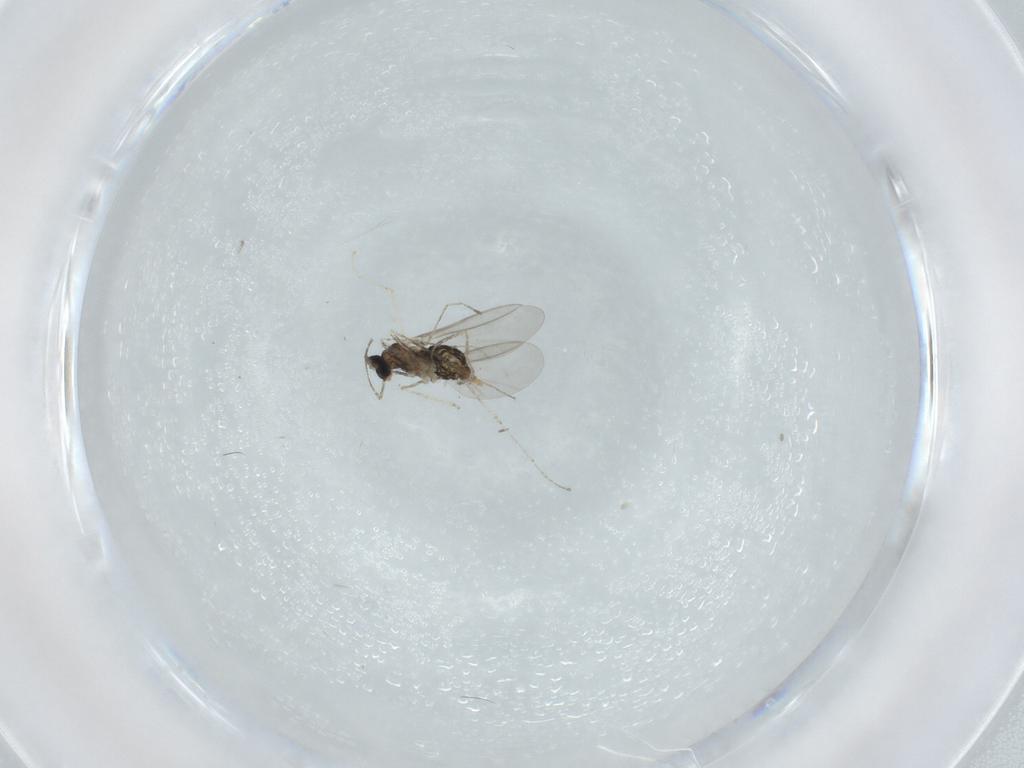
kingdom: Animalia
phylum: Arthropoda
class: Insecta
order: Diptera
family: Cecidomyiidae
